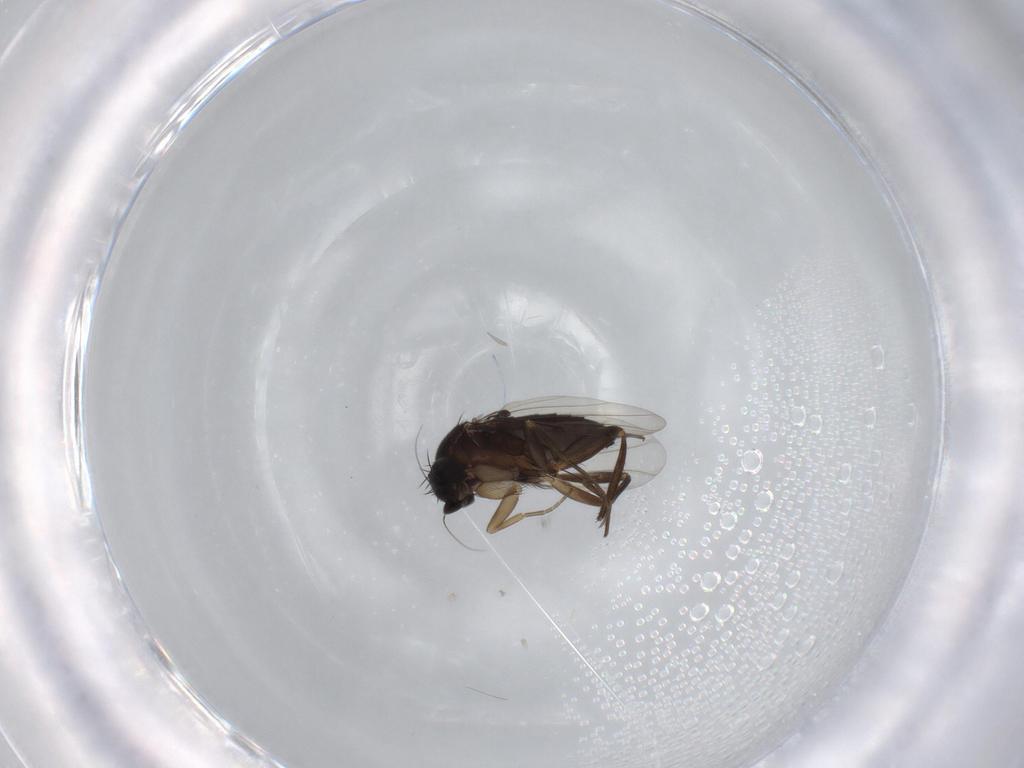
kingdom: Animalia
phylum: Arthropoda
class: Insecta
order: Diptera
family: Phoridae
